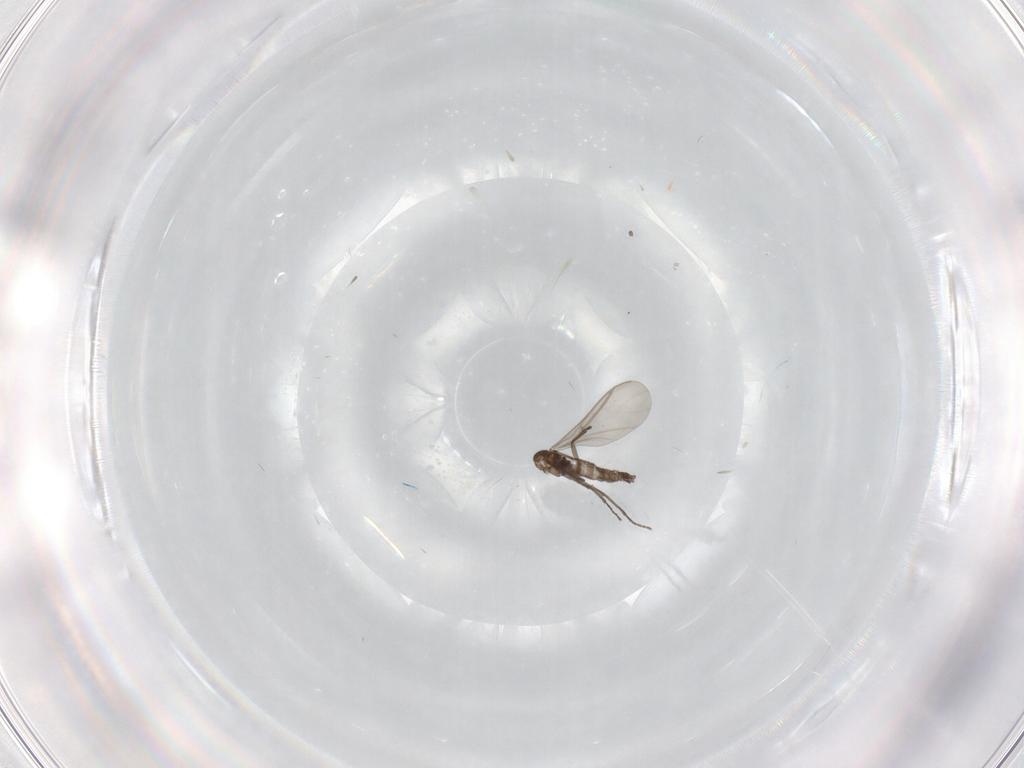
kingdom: Animalia
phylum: Arthropoda
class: Insecta
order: Diptera
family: Sciaridae
